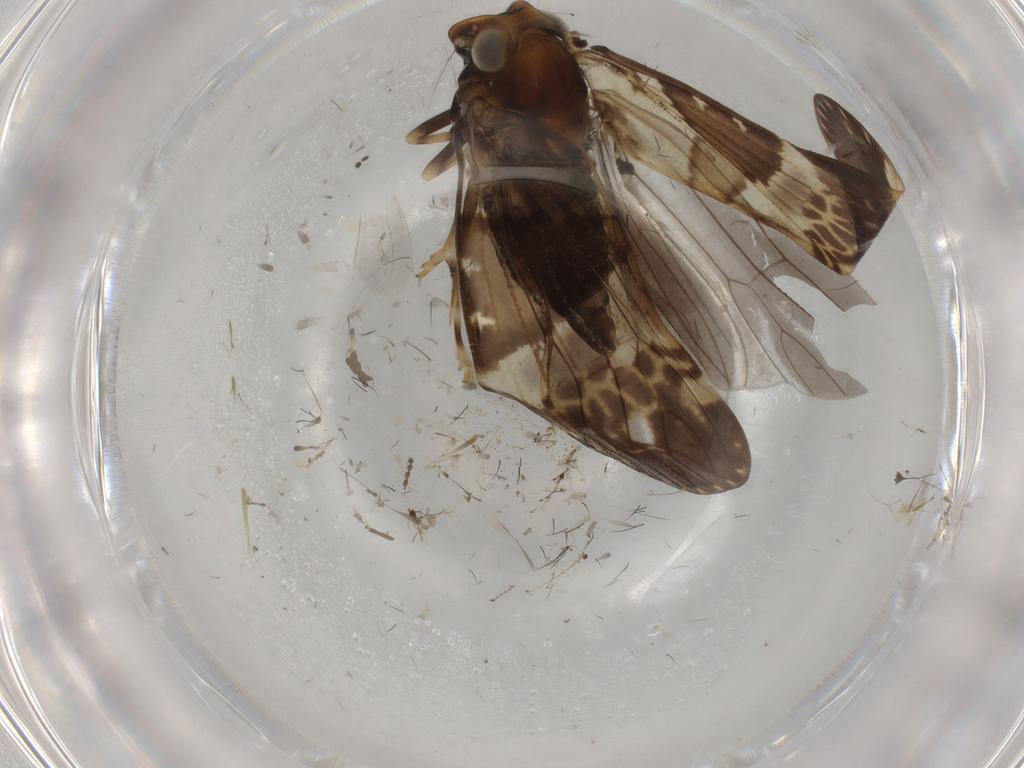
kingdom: Animalia
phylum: Arthropoda
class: Insecta
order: Hemiptera
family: Cixiidae
